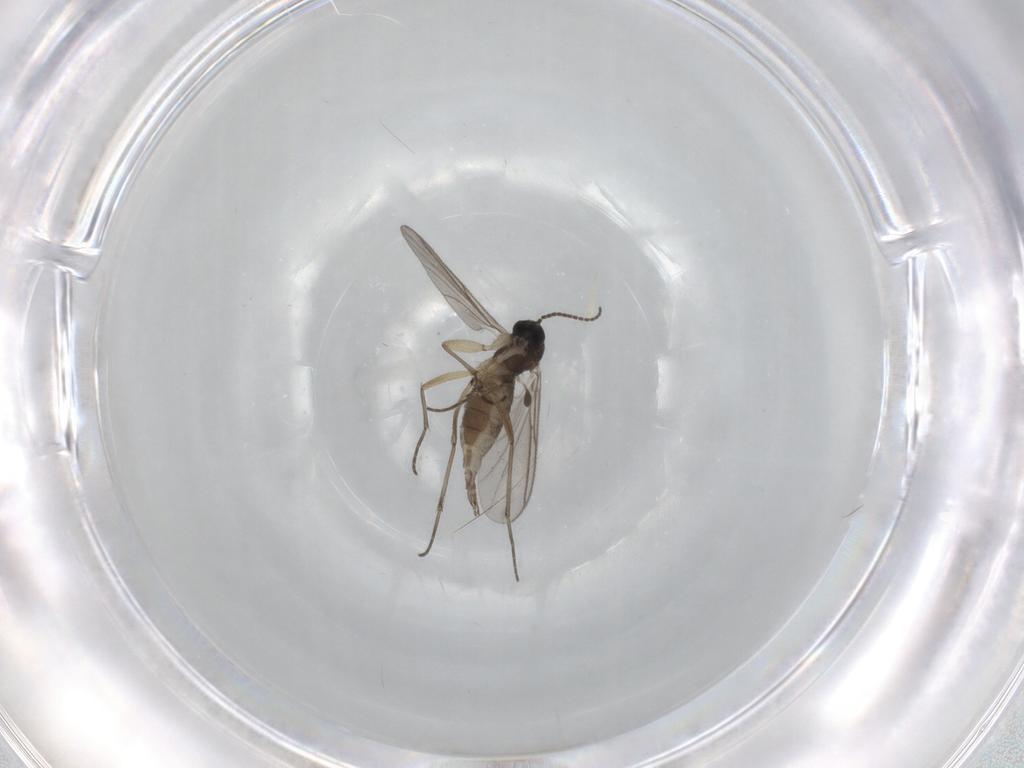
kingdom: Animalia
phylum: Arthropoda
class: Insecta
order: Diptera
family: Sciaridae
